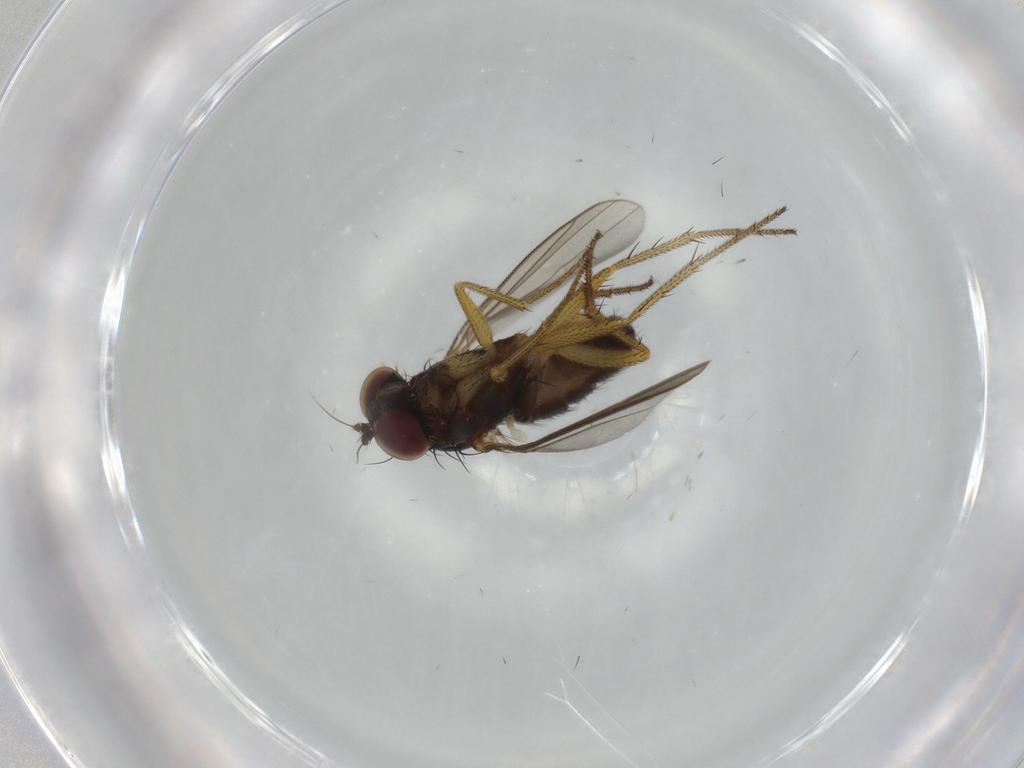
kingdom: Animalia
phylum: Arthropoda
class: Insecta
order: Diptera
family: Dolichopodidae
